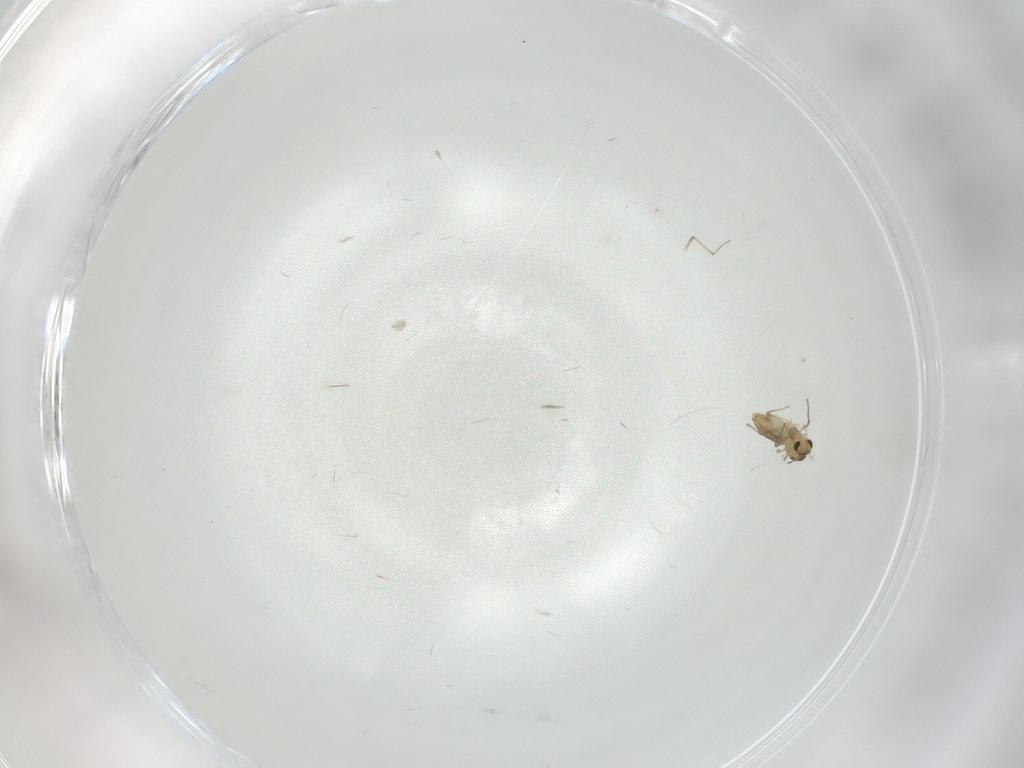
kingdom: Animalia
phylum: Arthropoda
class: Insecta
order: Diptera
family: Chironomidae
